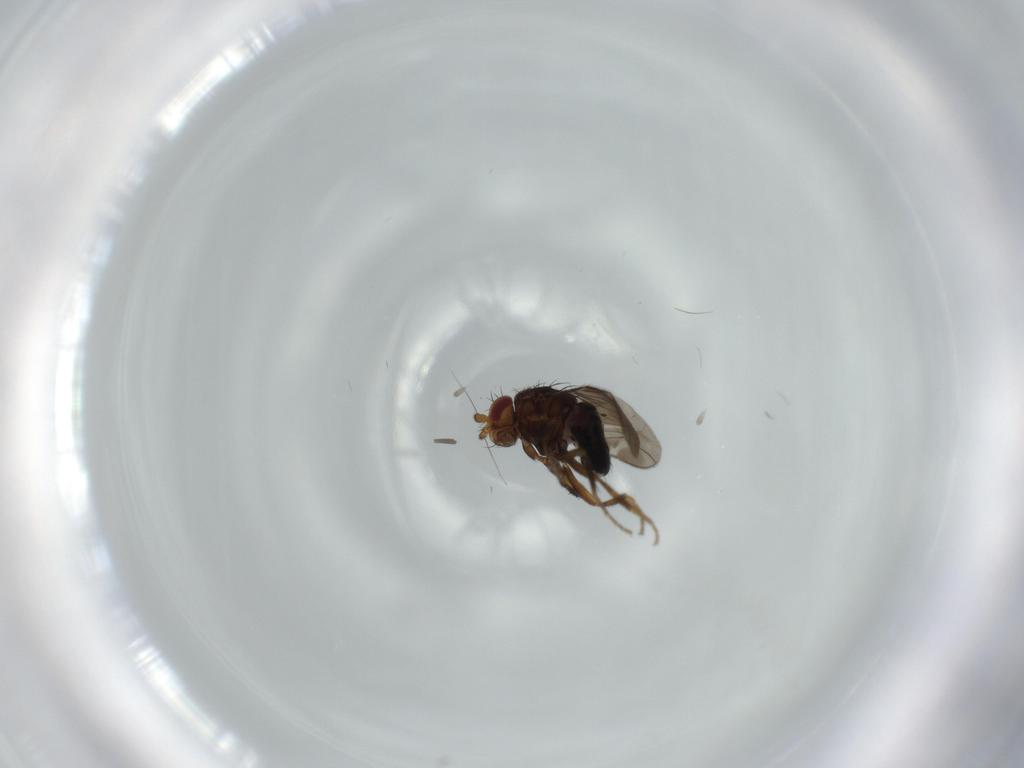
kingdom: Animalia
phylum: Arthropoda
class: Insecta
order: Diptera
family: Sphaeroceridae
